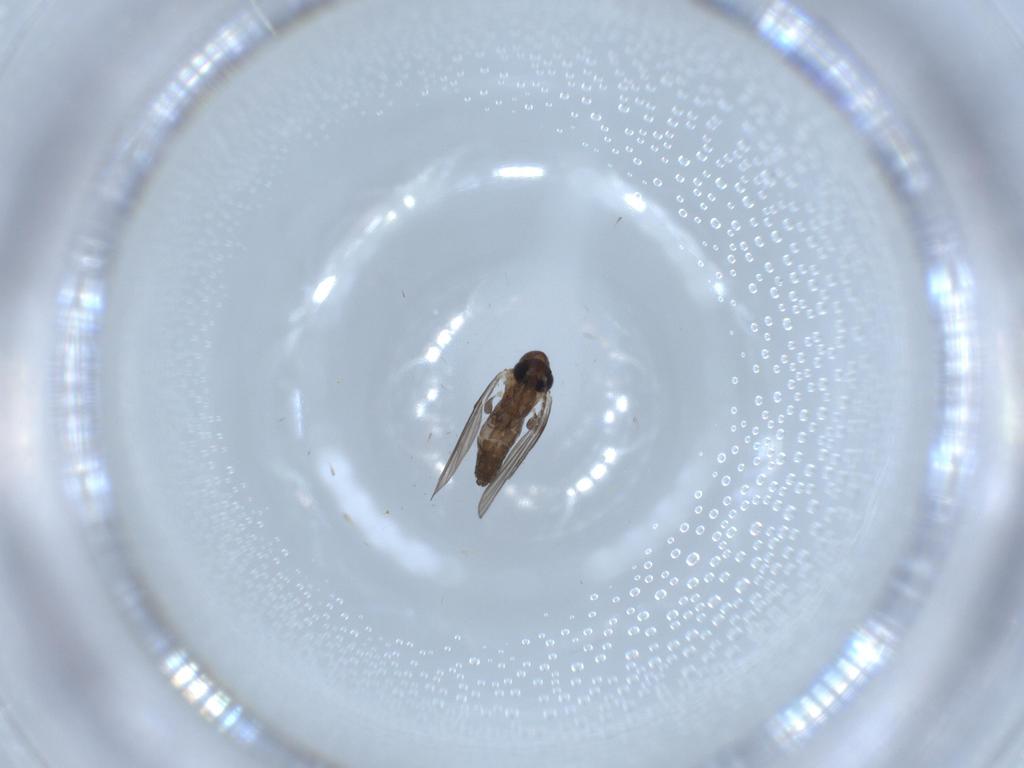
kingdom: Animalia
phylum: Arthropoda
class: Insecta
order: Diptera
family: Psychodidae
